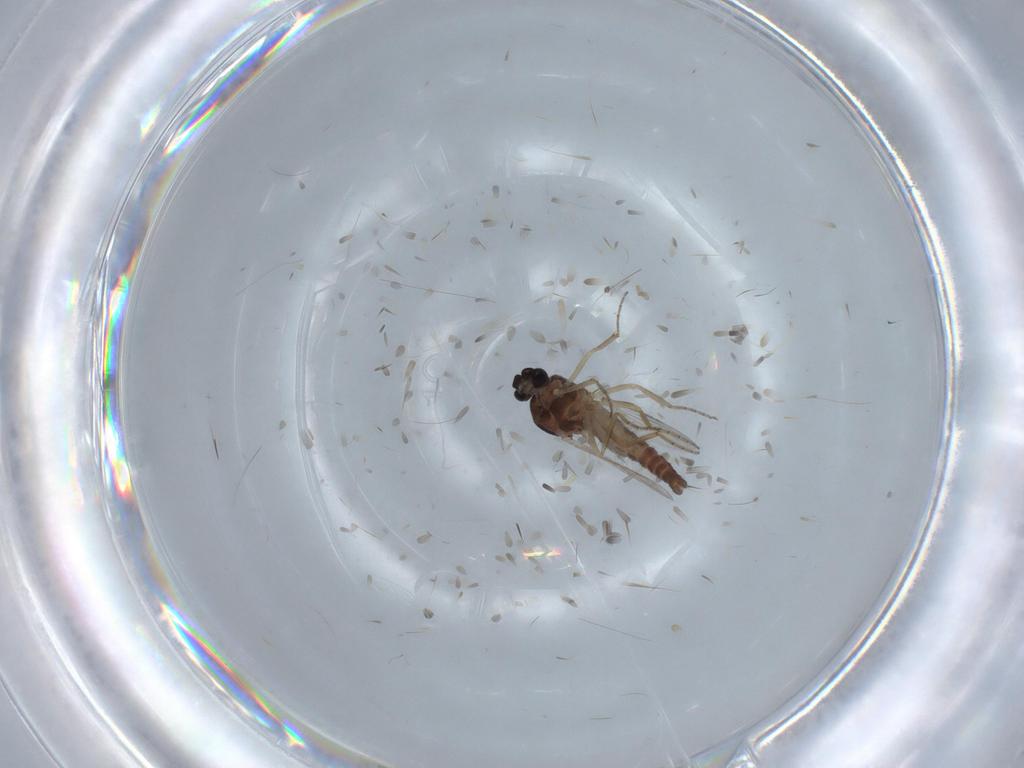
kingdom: Animalia
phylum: Arthropoda
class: Insecta
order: Diptera
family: Ceratopogonidae
